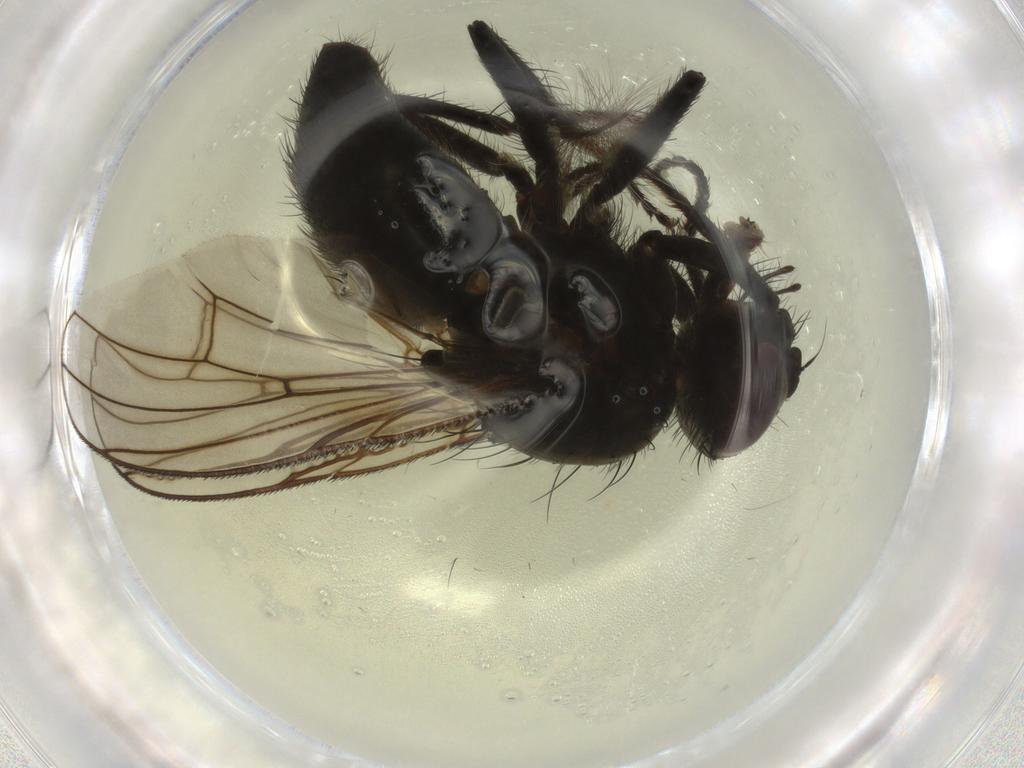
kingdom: Animalia
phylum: Arthropoda
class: Insecta
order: Diptera
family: Muscidae
